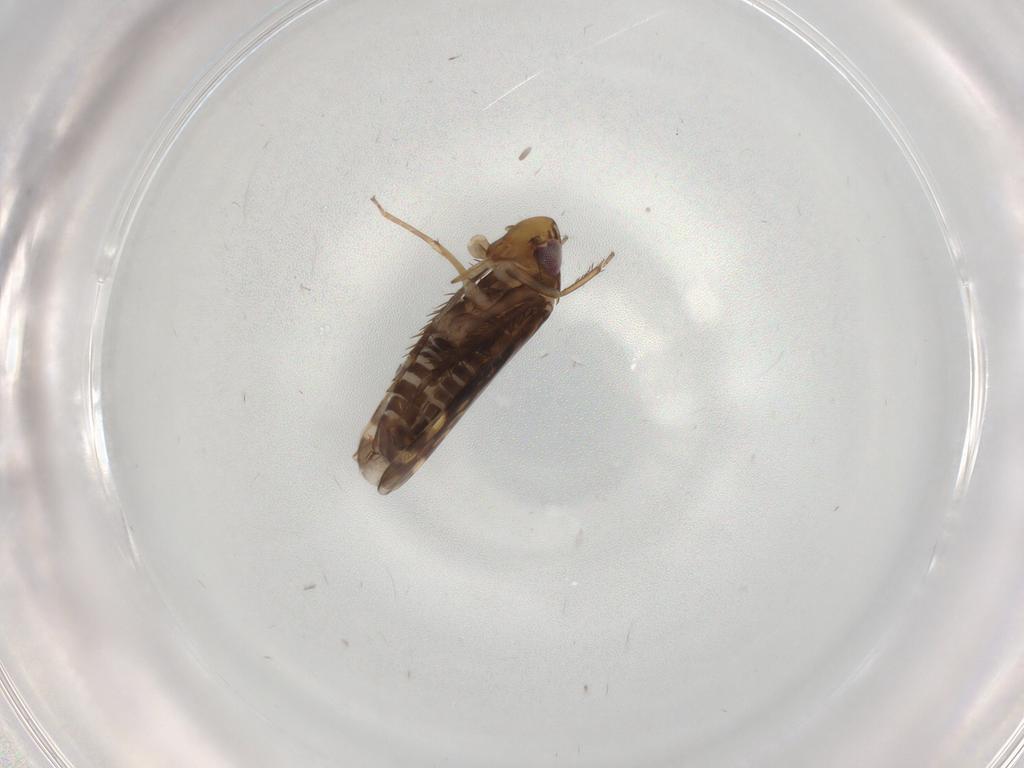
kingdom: Animalia
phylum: Arthropoda
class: Insecta
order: Hemiptera
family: Cicadellidae
